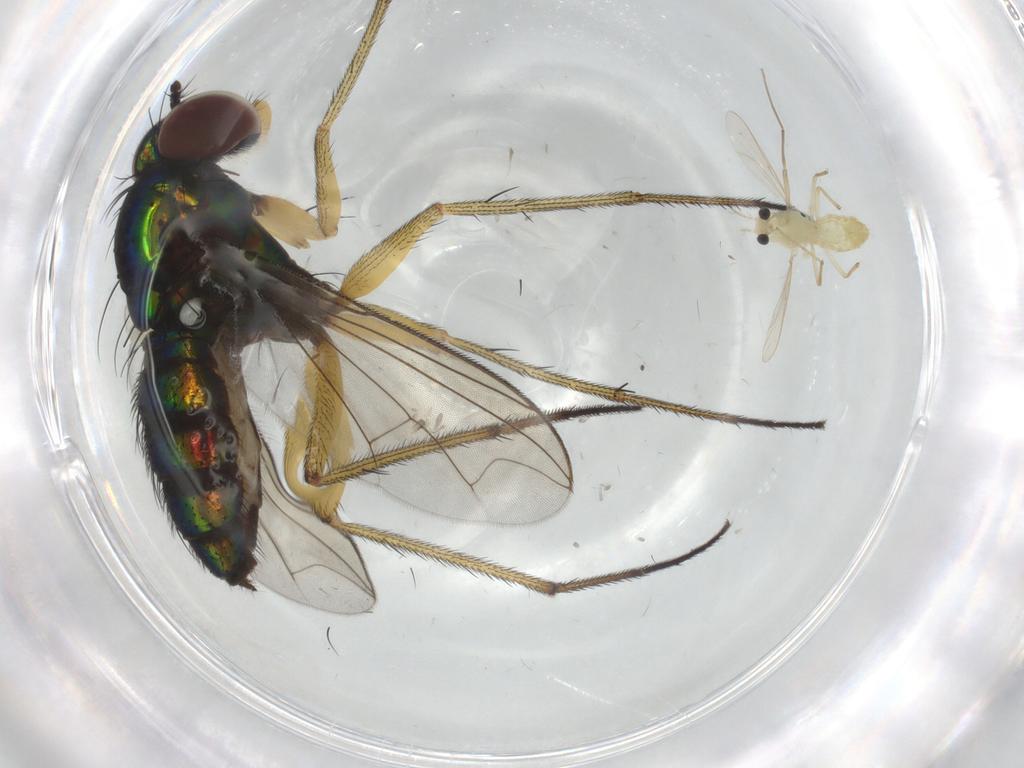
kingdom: Animalia
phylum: Arthropoda
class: Insecta
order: Diptera
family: Dolichopodidae
